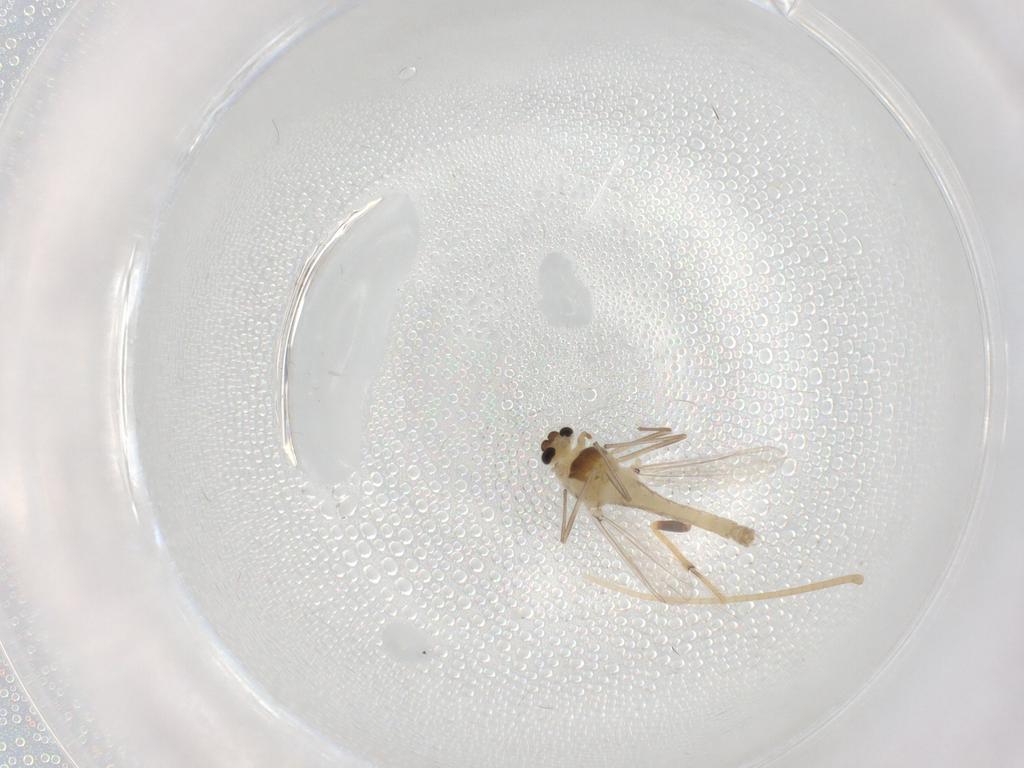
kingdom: Animalia
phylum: Arthropoda
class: Insecta
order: Diptera
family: Chironomidae
